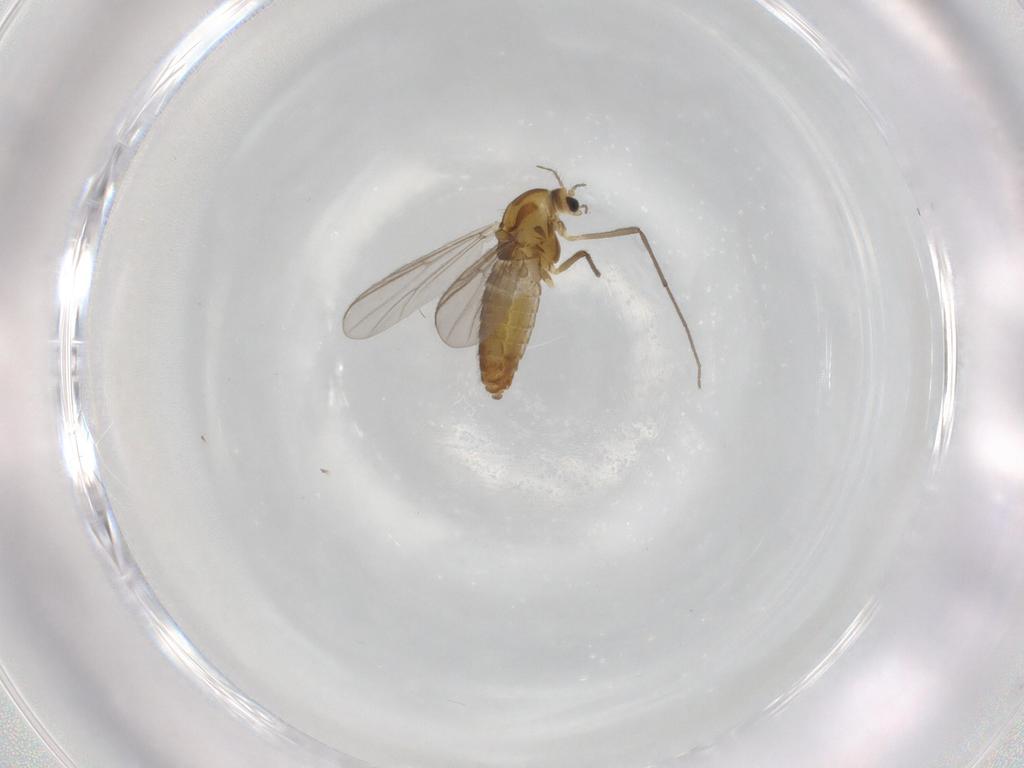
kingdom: Animalia
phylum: Arthropoda
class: Insecta
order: Diptera
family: Chironomidae
